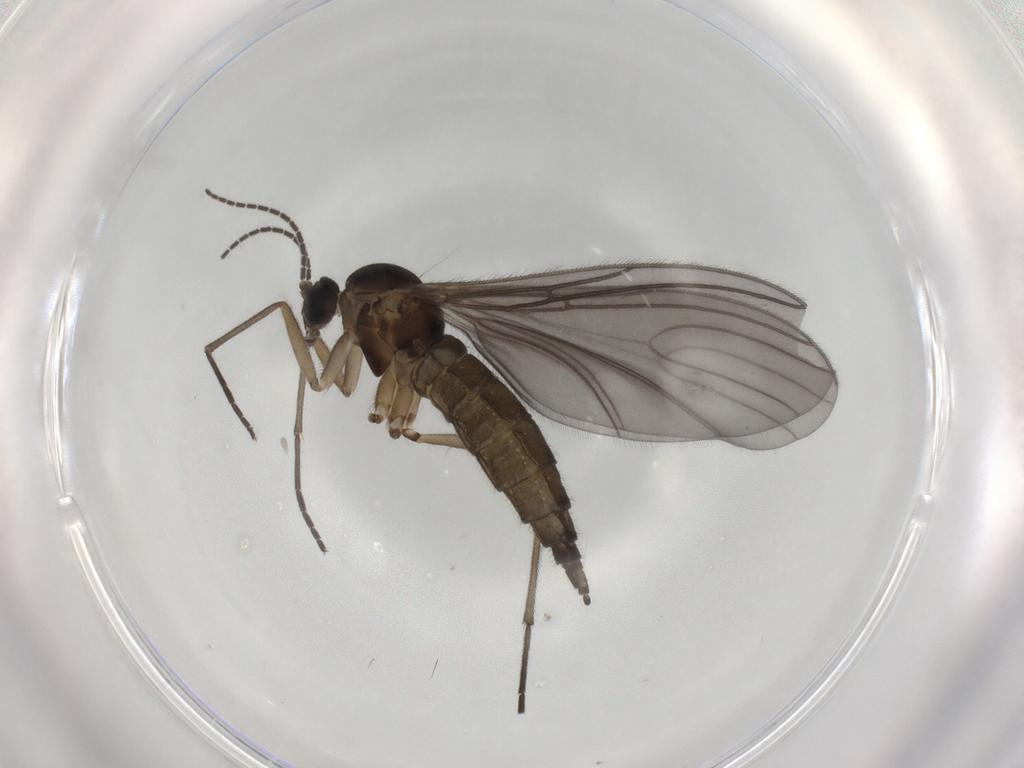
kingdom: Animalia
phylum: Arthropoda
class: Insecta
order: Diptera
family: Sciaridae
